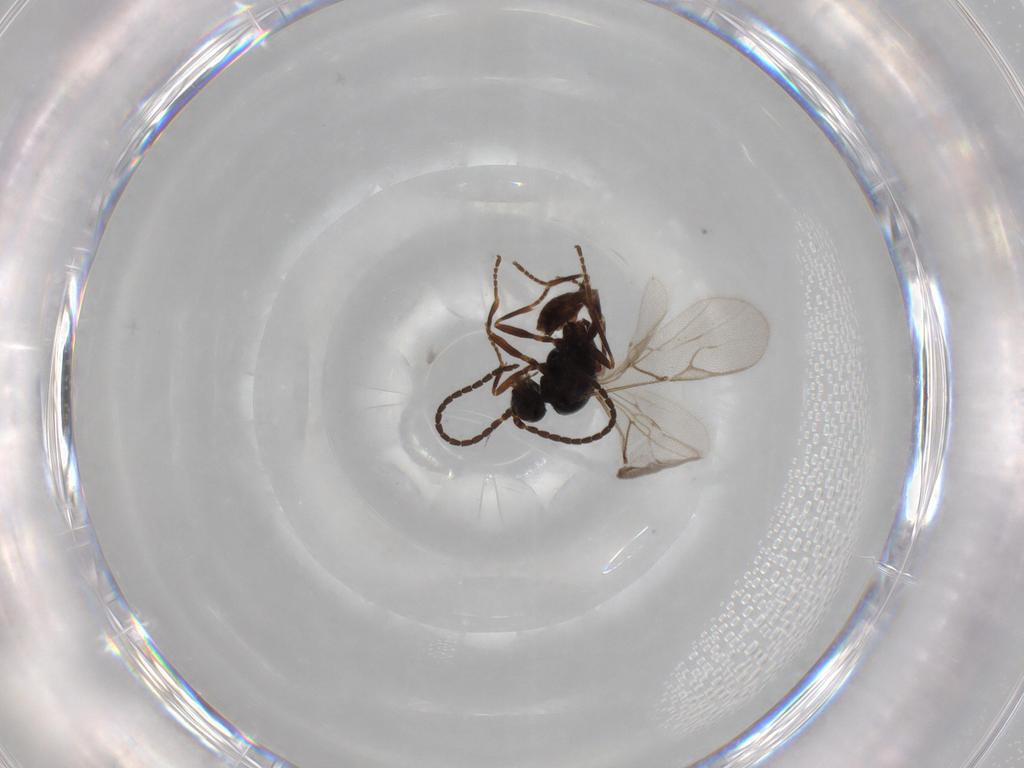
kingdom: Animalia
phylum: Arthropoda
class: Insecta
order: Hymenoptera
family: Braconidae
